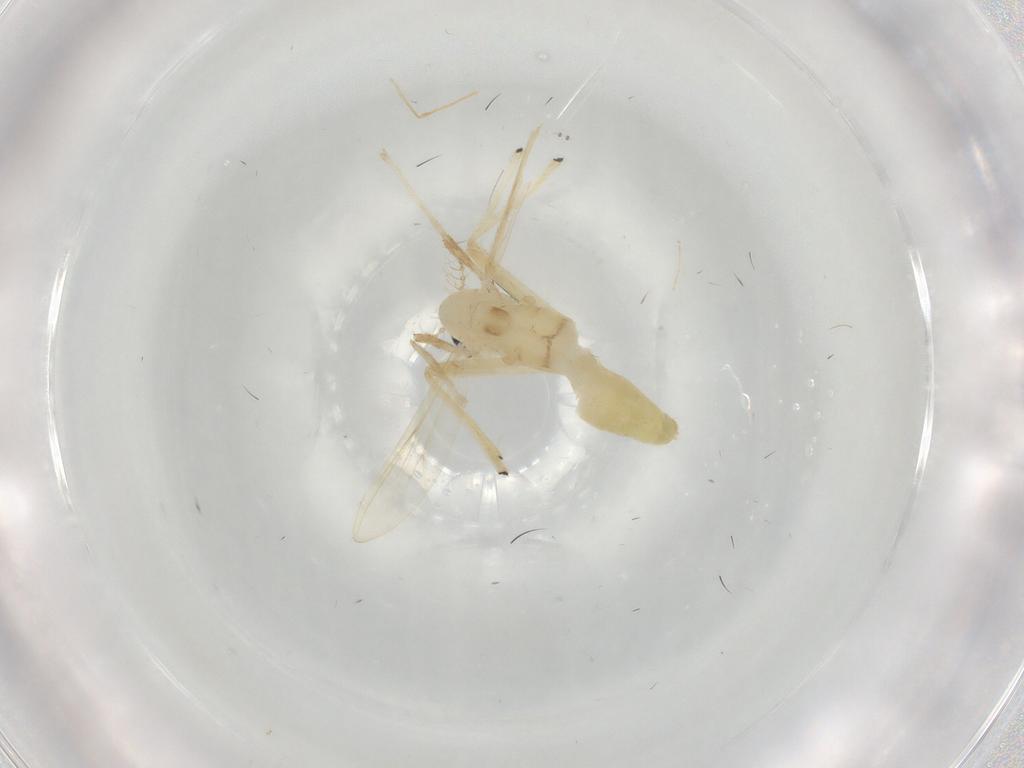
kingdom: Animalia
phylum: Arthropoda
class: Insecta
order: Diptera
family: Chironomidae
